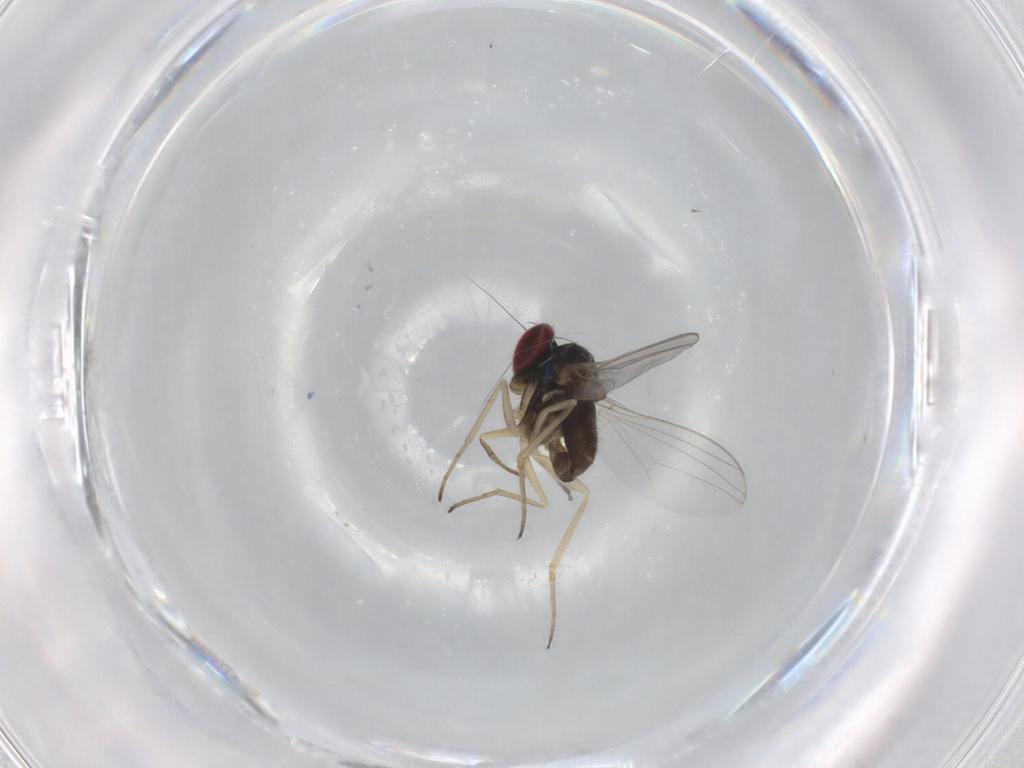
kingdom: Animalia
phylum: Arthropoda
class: Insecta
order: Diptera
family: Dolichopodidae
